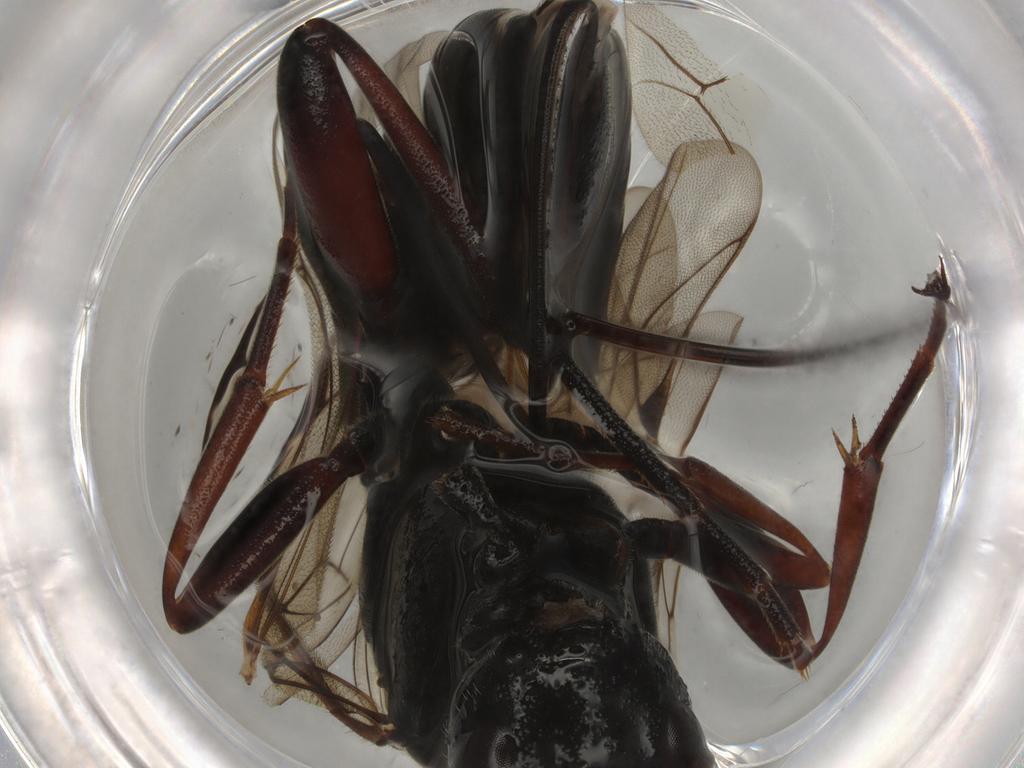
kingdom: Animalia
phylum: Arthropoda
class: Insecta
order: Hymenoptera
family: Ichneumonidae
